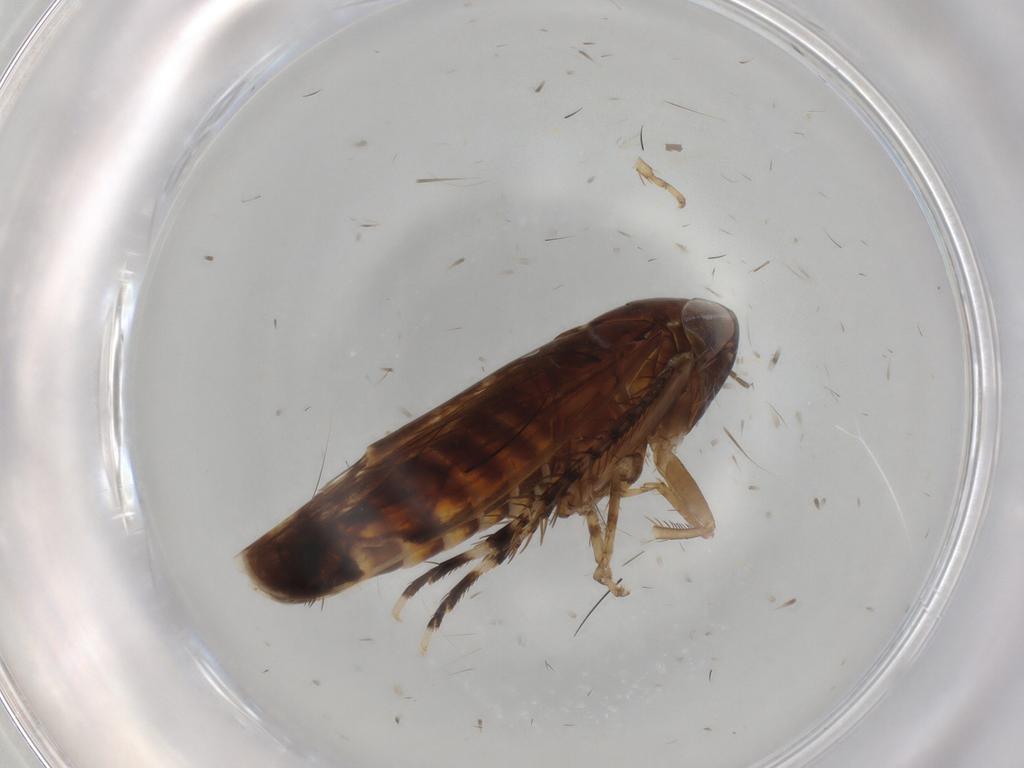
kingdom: Animalia
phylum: Arthropoda
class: Insecta
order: Hemiptera
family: Cicadellidae
